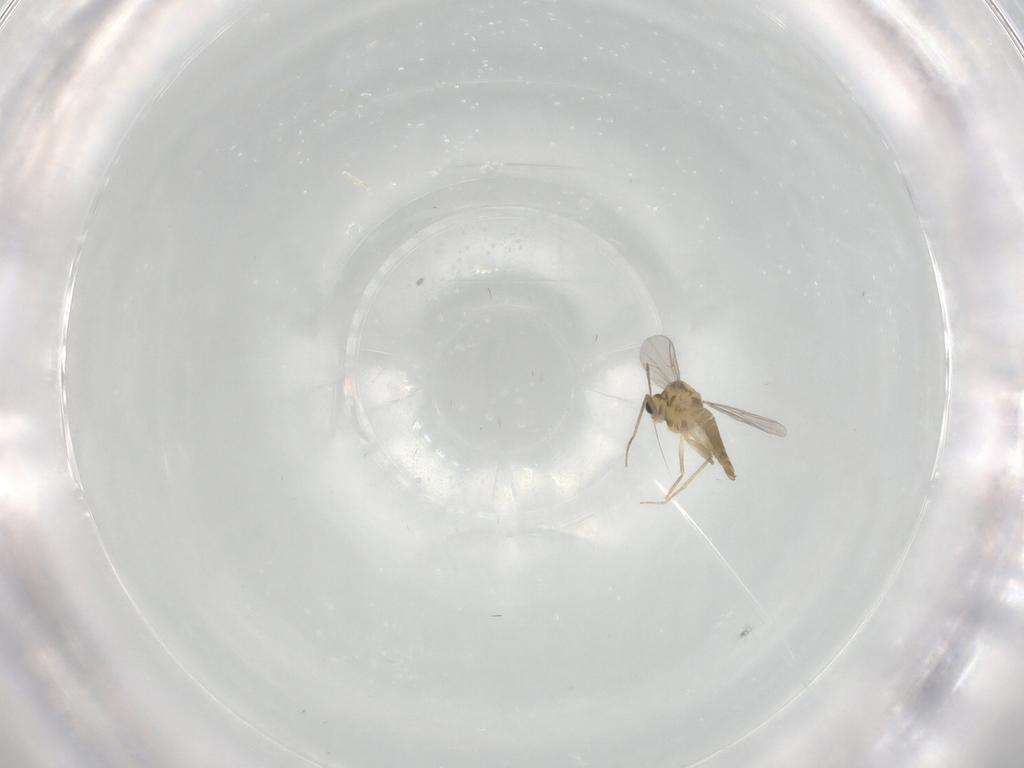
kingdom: Animalia
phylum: Arthropoda
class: Insecta
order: Diptera
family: Chironomidae
